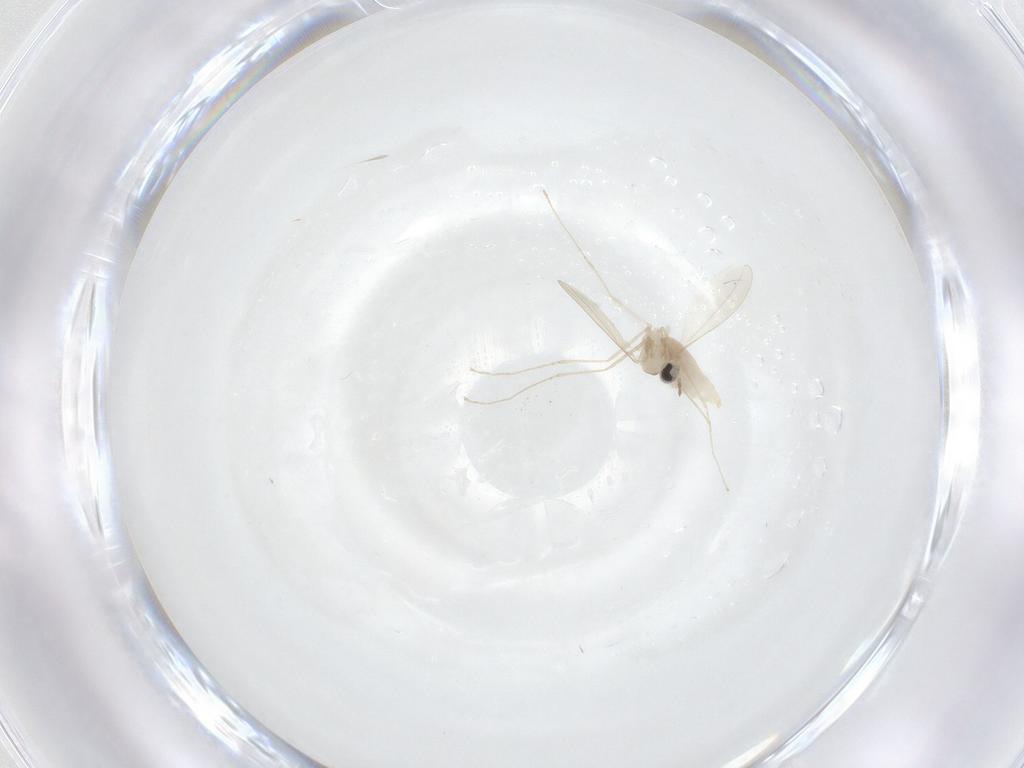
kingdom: Animalia
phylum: Arthropoda
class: Insecta
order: Diptera
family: Cecidomyiidae
